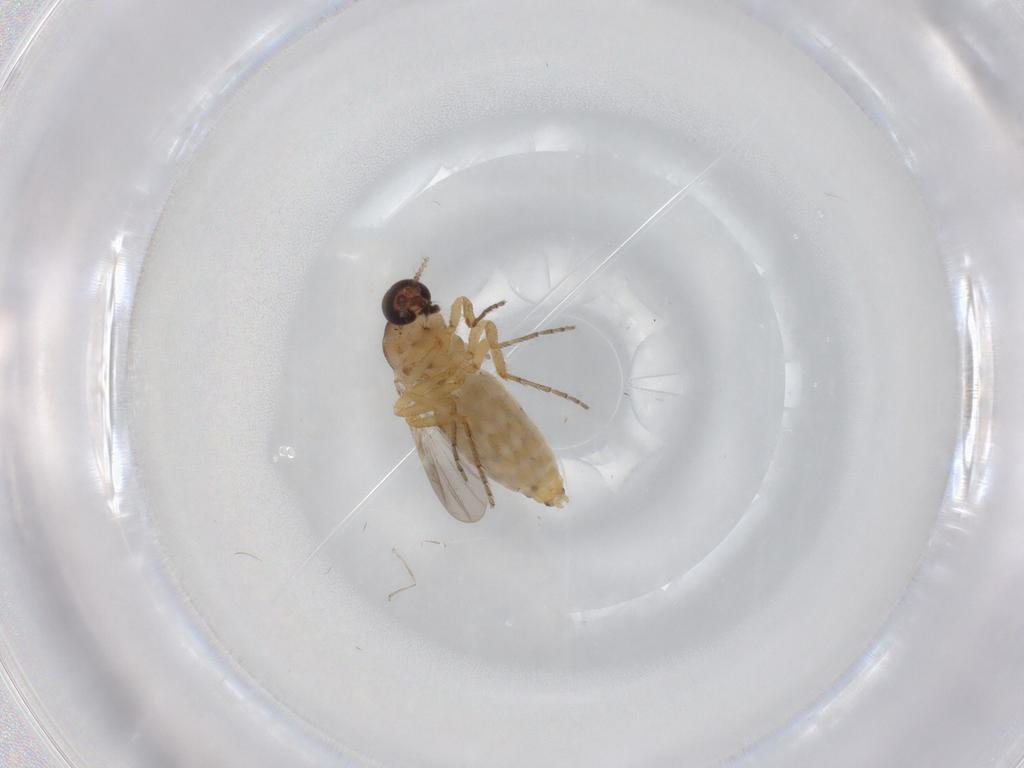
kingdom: Animalia
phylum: Arthropoda
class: Insecta
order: Diptera
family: Ceratopogonidae
